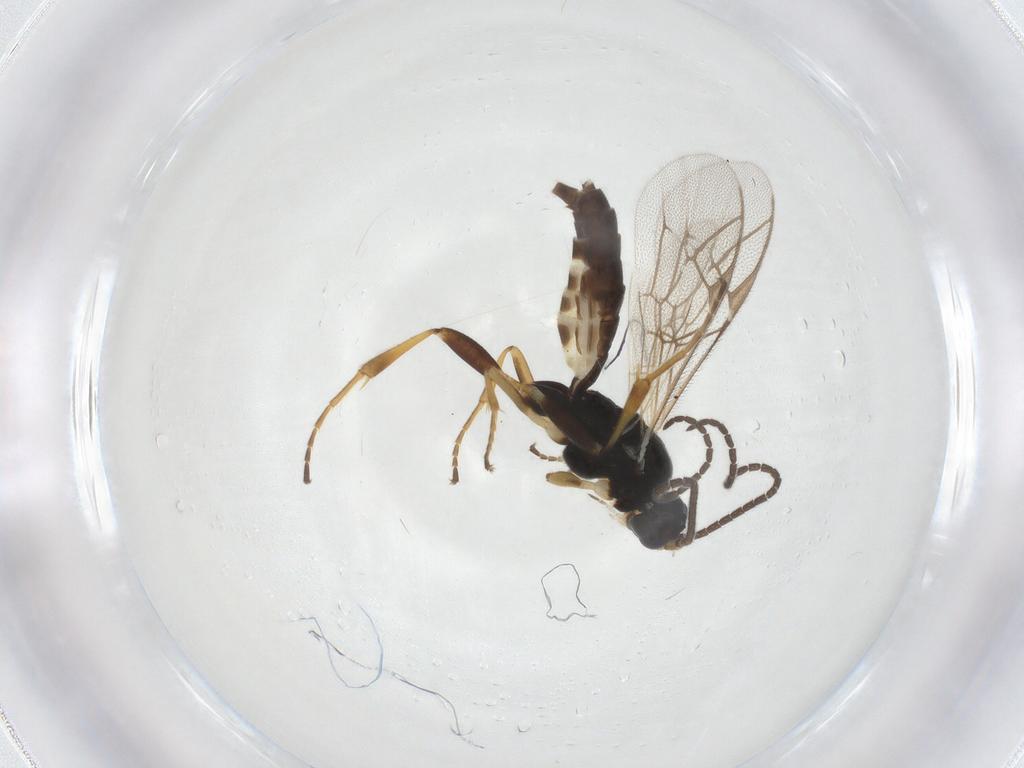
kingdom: Animalia
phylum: Arthropoda
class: Insecta
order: Hymenoptera
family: Ichneumonidae
